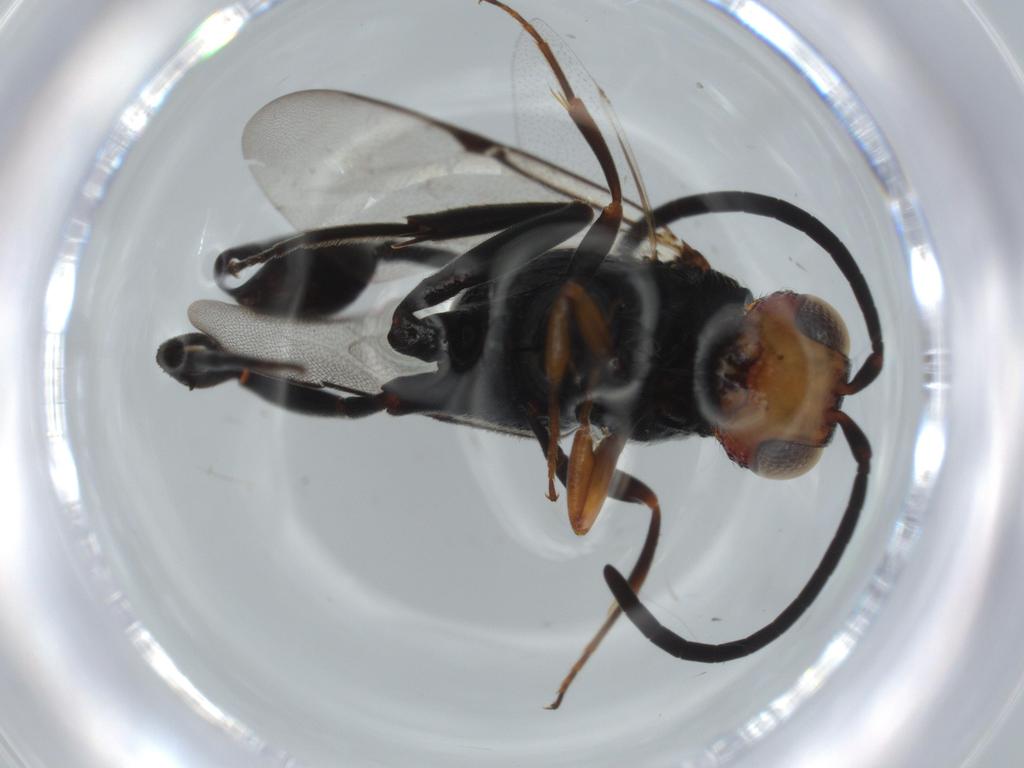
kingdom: Animalia
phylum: Arthropoda
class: Insecta
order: Hymenoptera
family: Evaniidae
